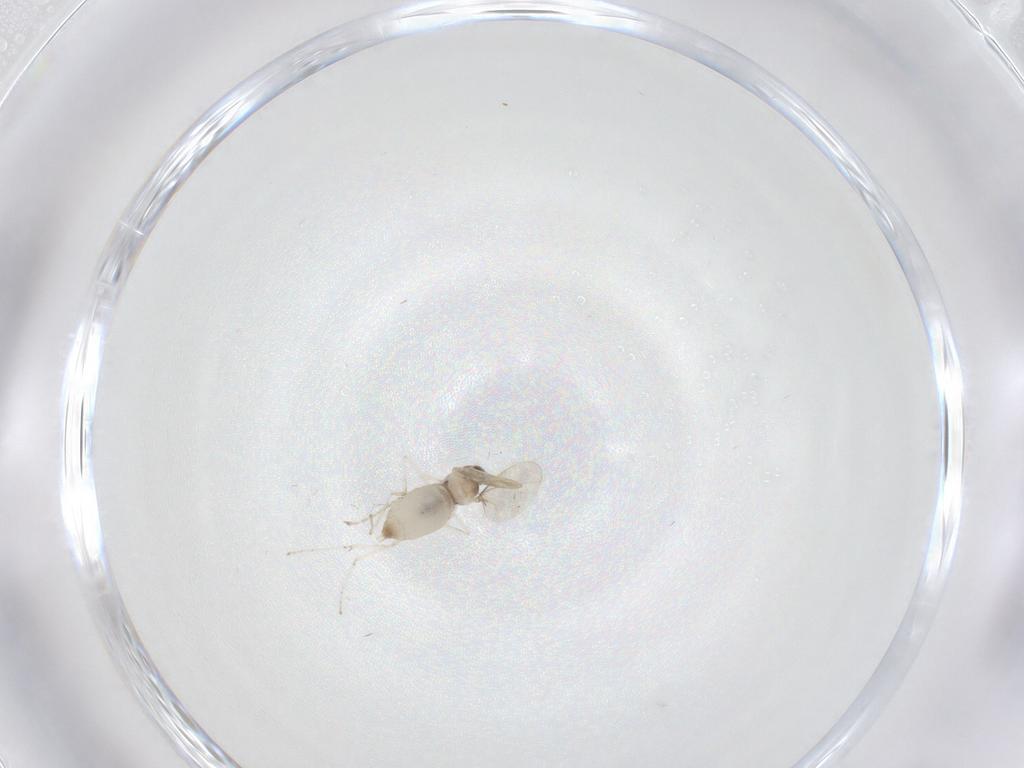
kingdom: Animalia
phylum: Arthropoda
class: Insecta
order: Diptera
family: Cecidomyiidae
